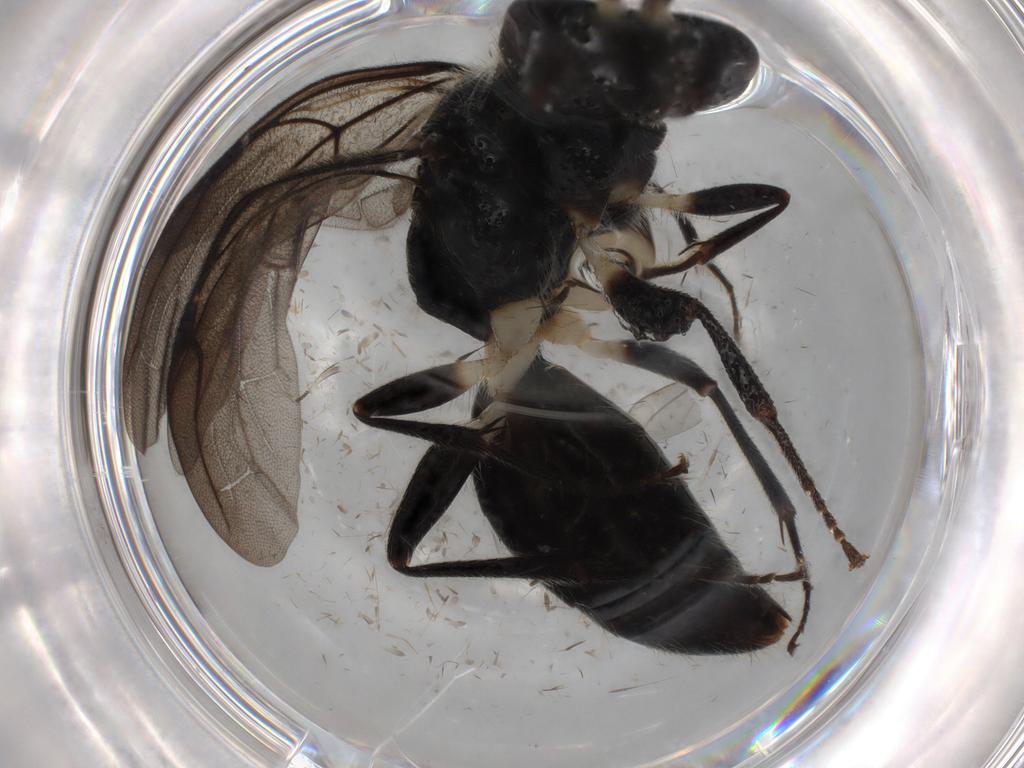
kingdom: Animalia
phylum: Arthropoda
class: Insecta
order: Hymenoptera
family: Bethylidae
